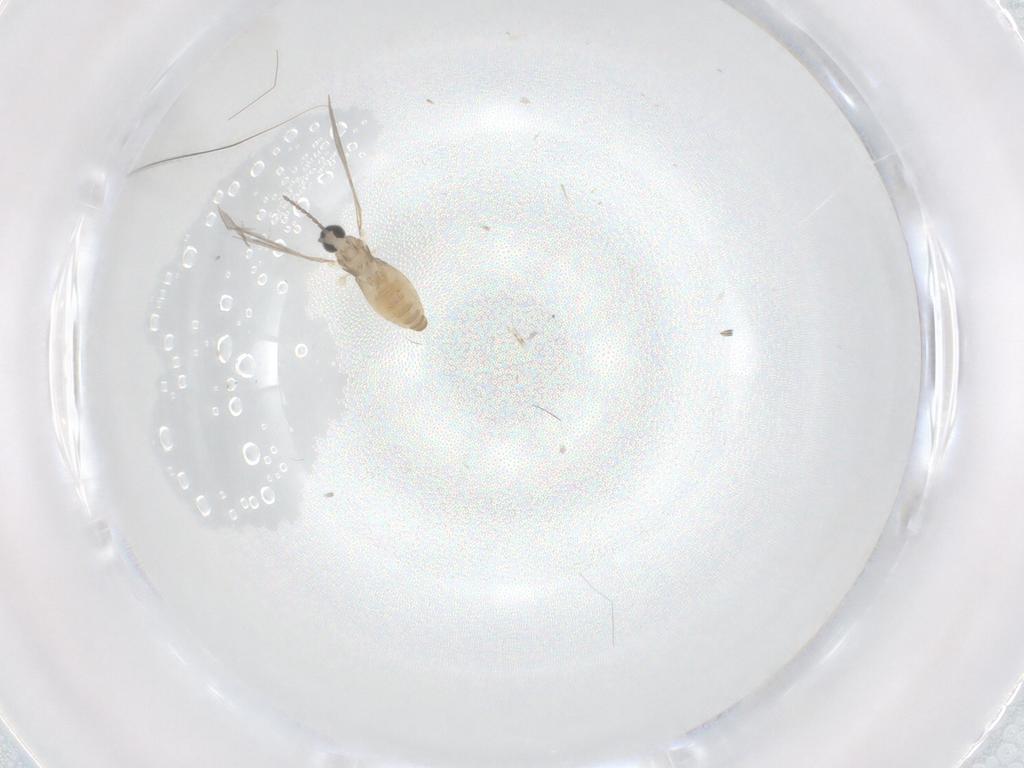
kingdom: Animalia
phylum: Arthropoda
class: Insecta
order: Diptera
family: Cecidomyiidae
